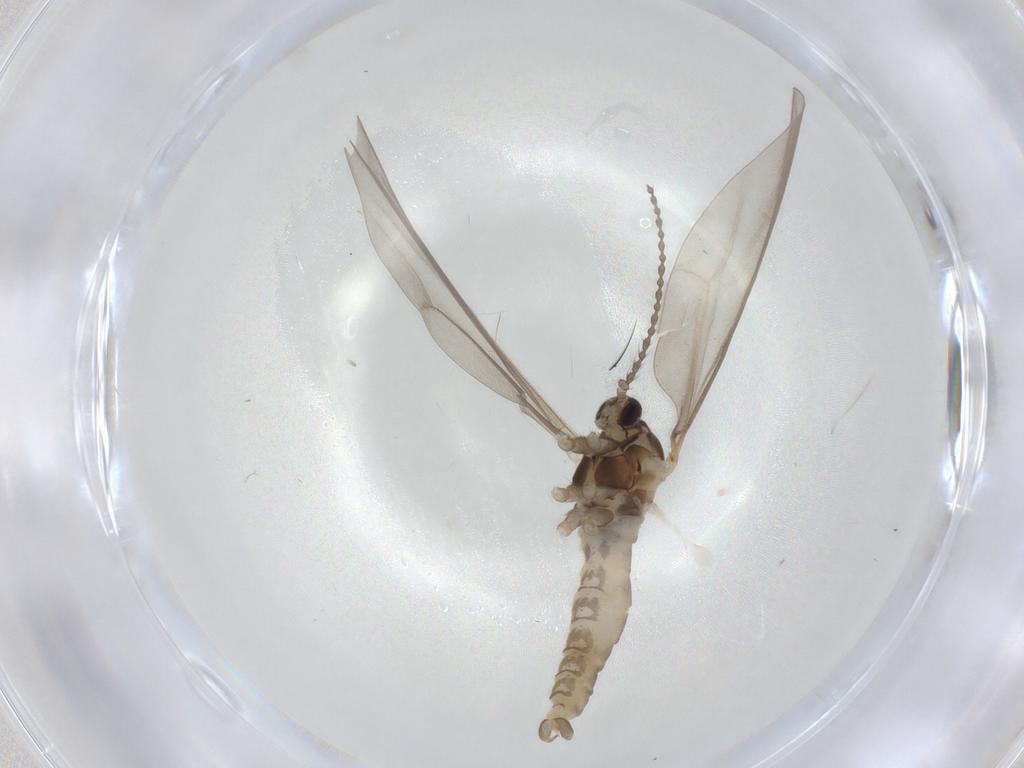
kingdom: Animalia
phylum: Arthropoda
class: Insecta
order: Diptera
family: Cecidomyiidae
